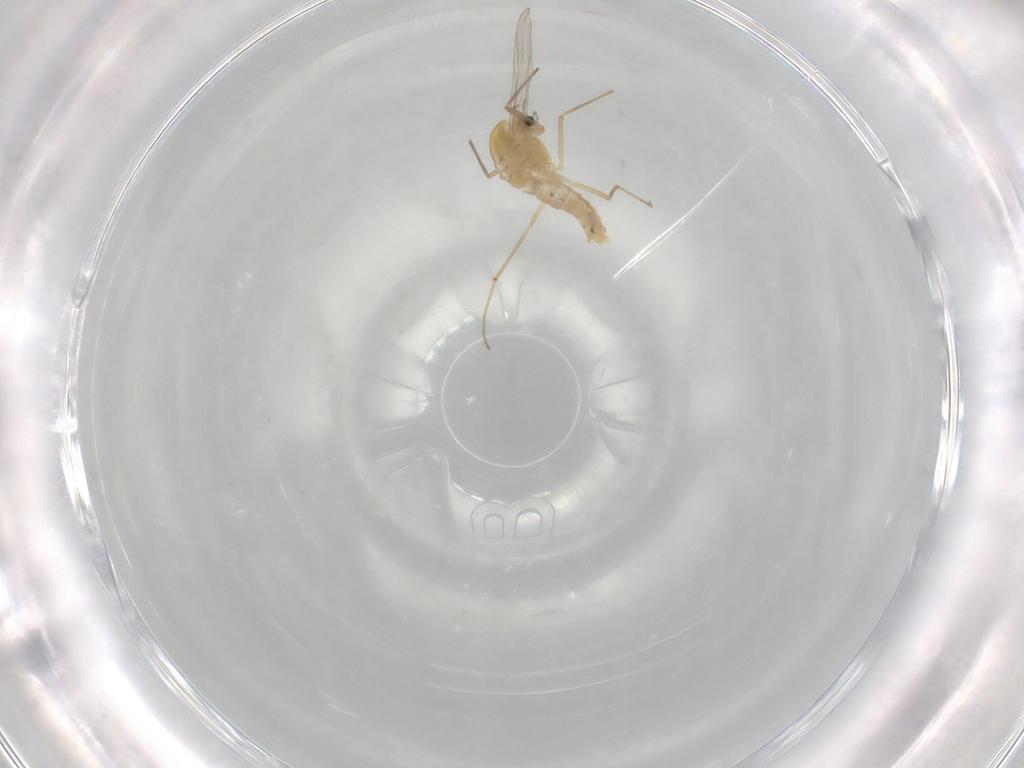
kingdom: Animalia
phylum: Arthropoda
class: Insecta
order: Diptera
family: Chironomidae
